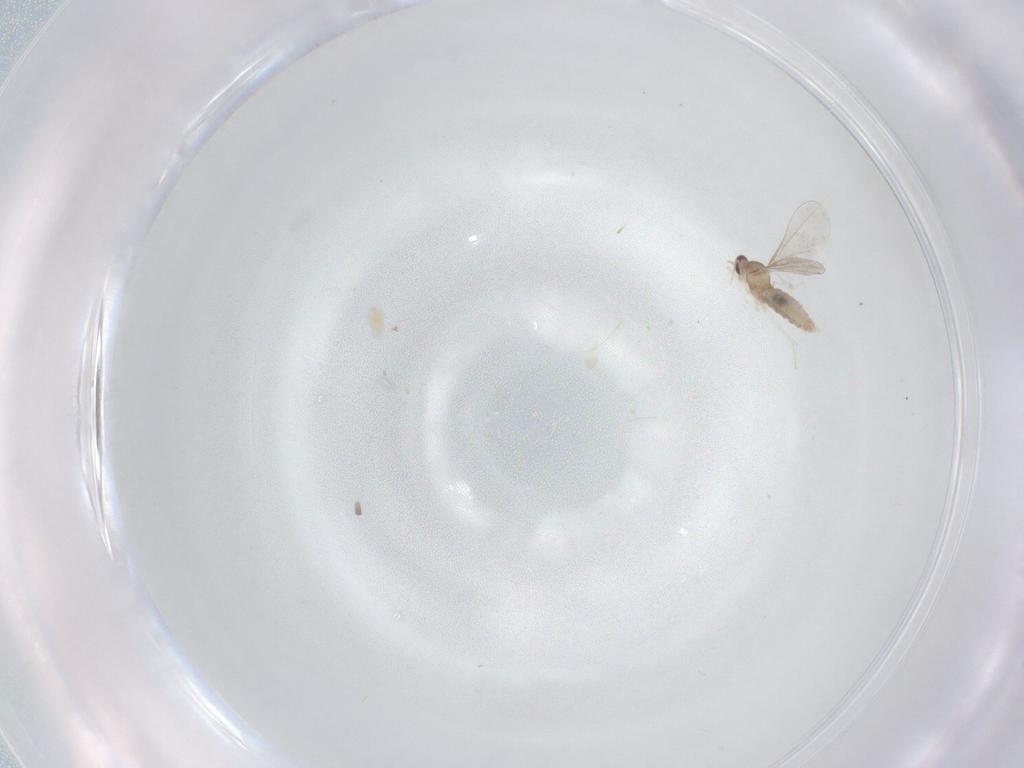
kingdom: Animalia
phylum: Arthropoda
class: Insecta
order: Diptera
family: Cecidomyiidae
